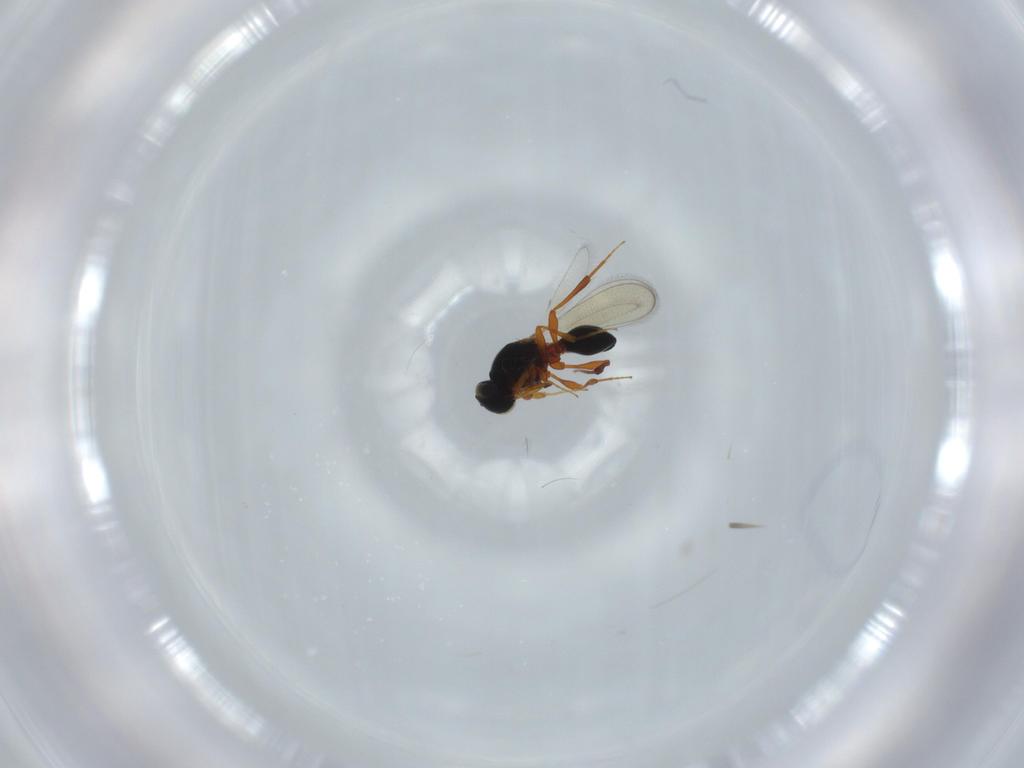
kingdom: Animalia
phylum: Arthropoda
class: Insecta
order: Hymenoptera
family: Platygastridae
